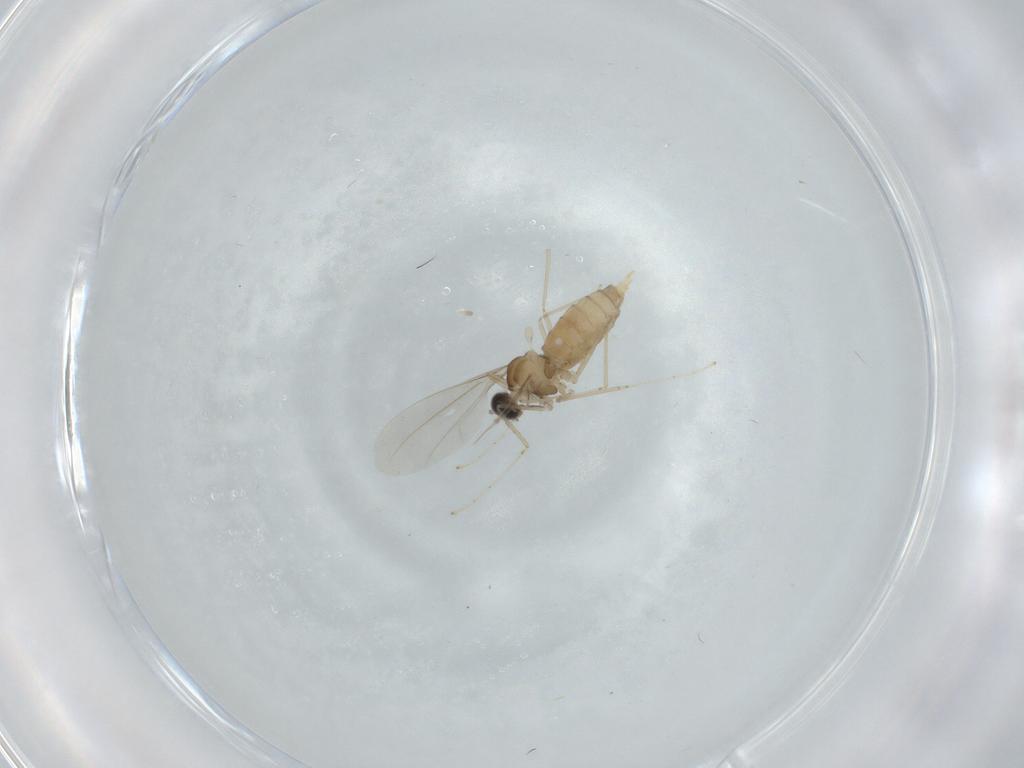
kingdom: Animalia
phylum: Arthropoda
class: Insecta
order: Diptera
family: Cecidomyiidae
